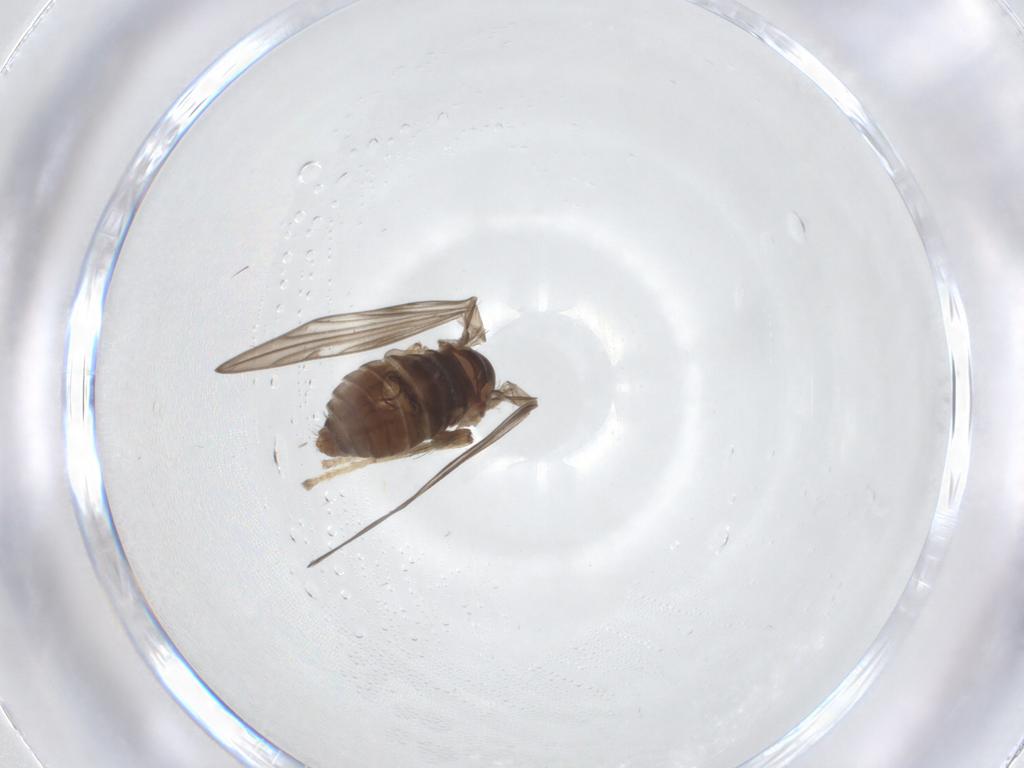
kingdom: Animalia
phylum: Arthropoda
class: Insecta
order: Diptera
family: Psychodidae
